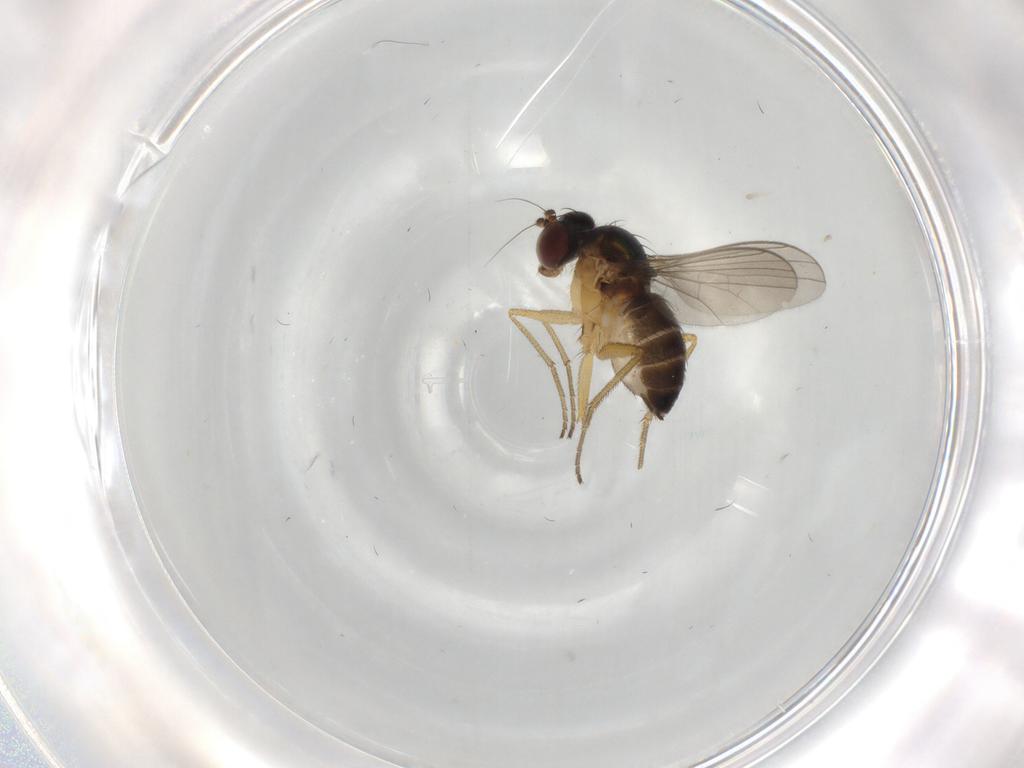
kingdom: Animalia
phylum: Arthropoda
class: Insecta
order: Diptera
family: Dolichopodidae
